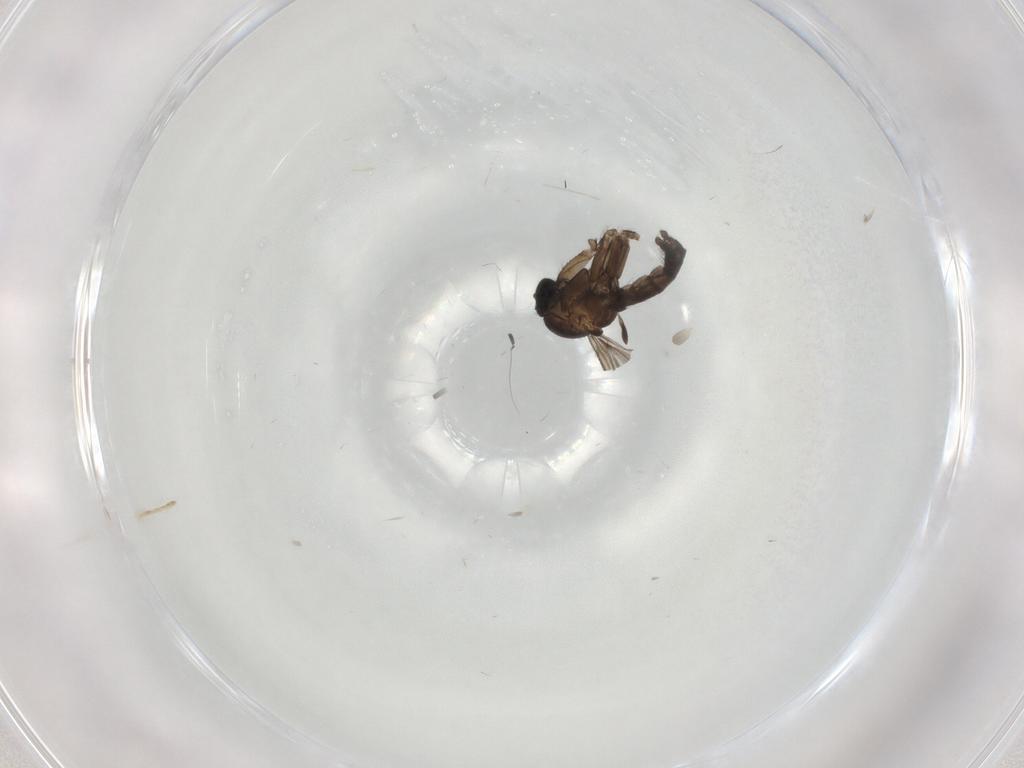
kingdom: Animalia
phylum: Arthropoda
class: Insecta
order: Diptera
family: Sciaridae
